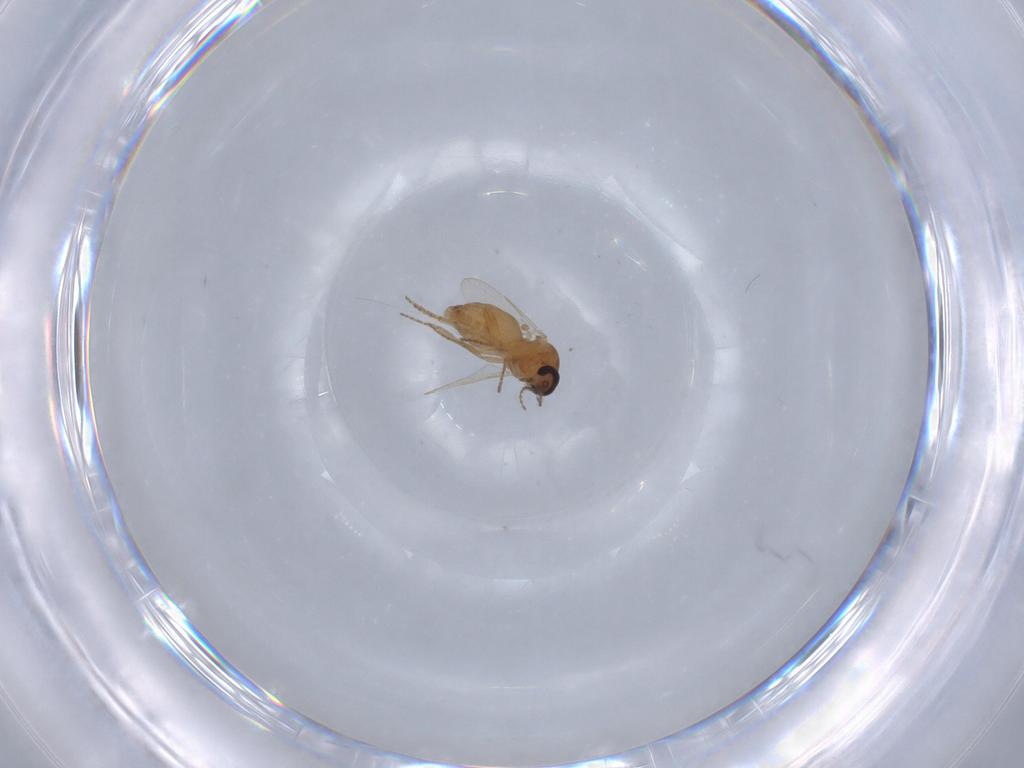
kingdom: Animalia
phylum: Arthropoda
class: Insecta
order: Diptera
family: Ceratopogonidae
